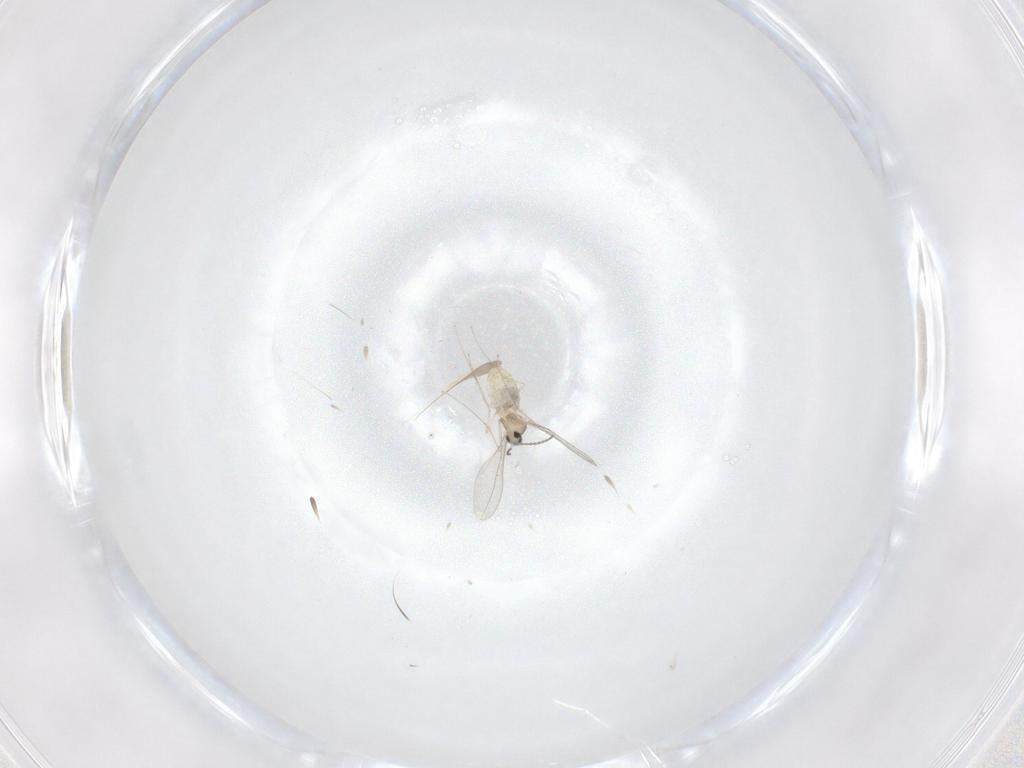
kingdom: Animalia
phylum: Arthropoda
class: Insecta
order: Diptera
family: Cecidomyiidae
